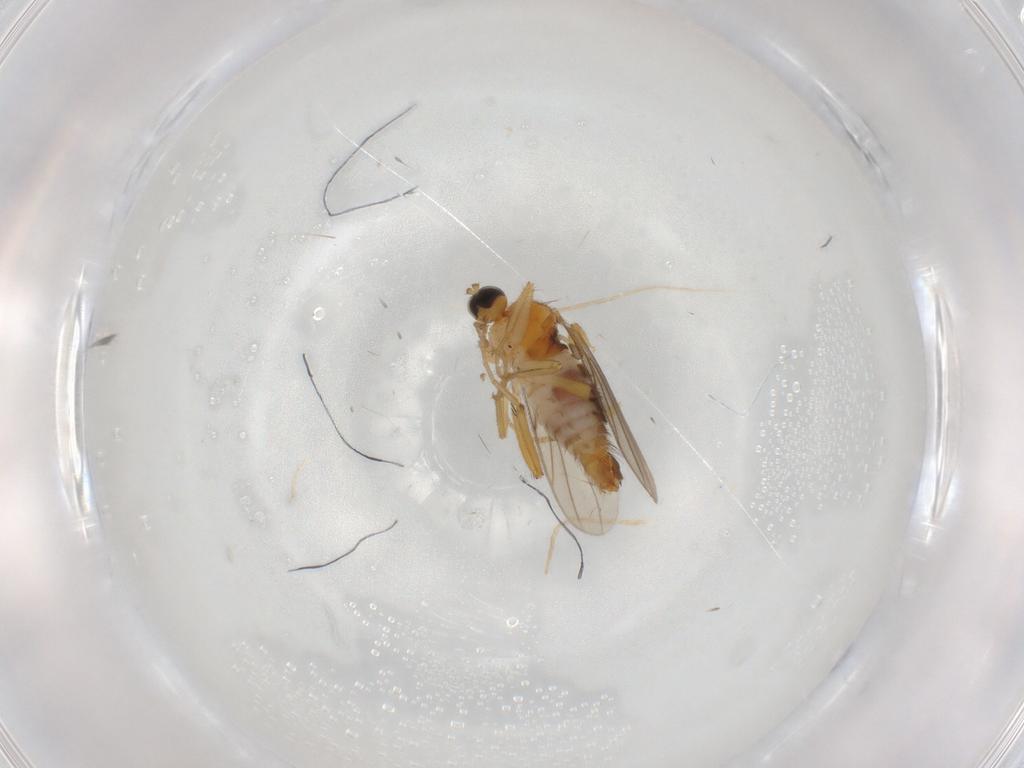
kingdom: Animalia
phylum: Arthropoda
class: Insecta
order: Diptera
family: Hybotidae
